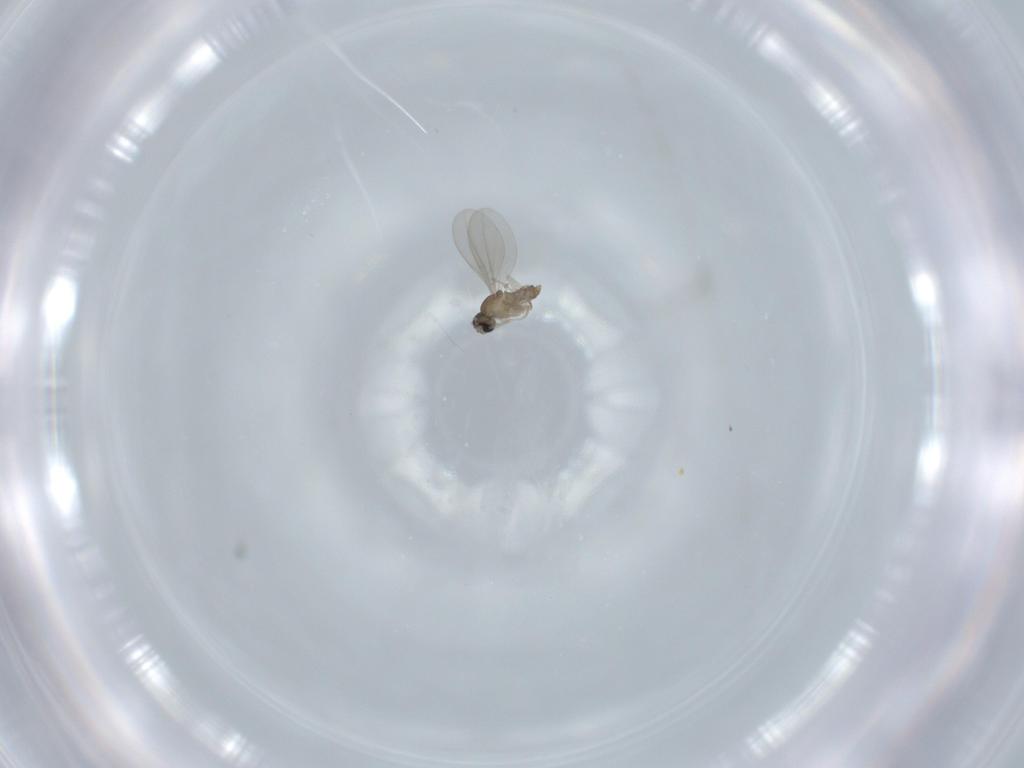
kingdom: Animalia
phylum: Arthropoda
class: Insecta
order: Diptera
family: Cecidomyiidae
